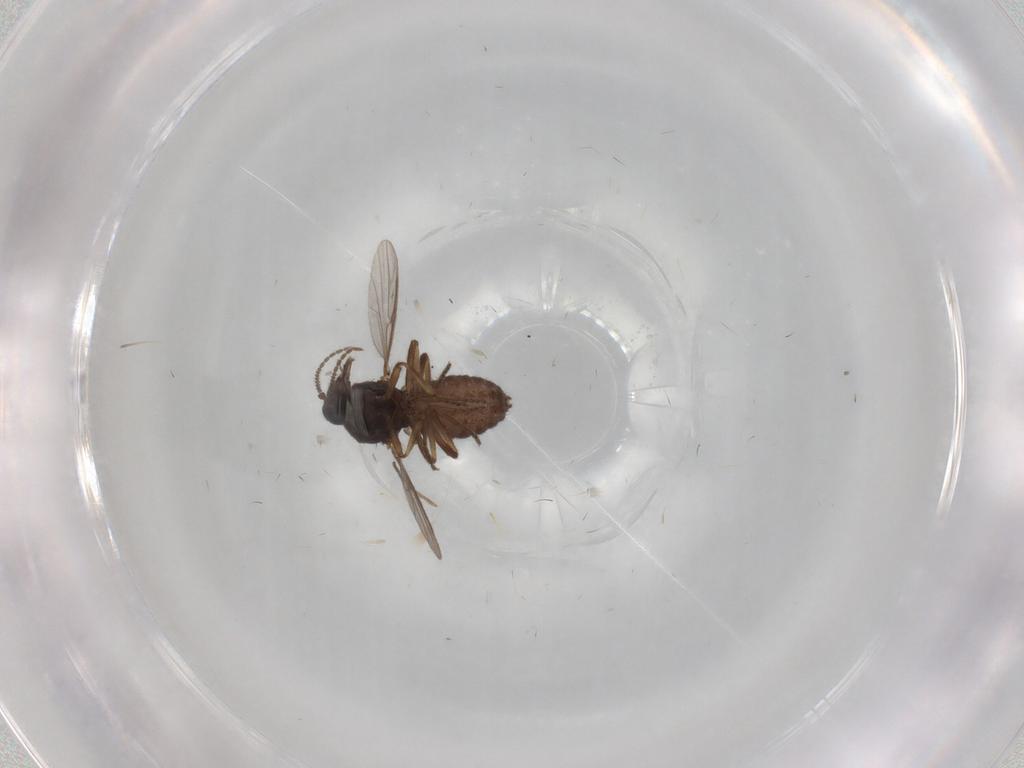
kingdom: Animalia
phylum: Arthropoda
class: Insecta
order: Diptera
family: Ceratopogonidae
